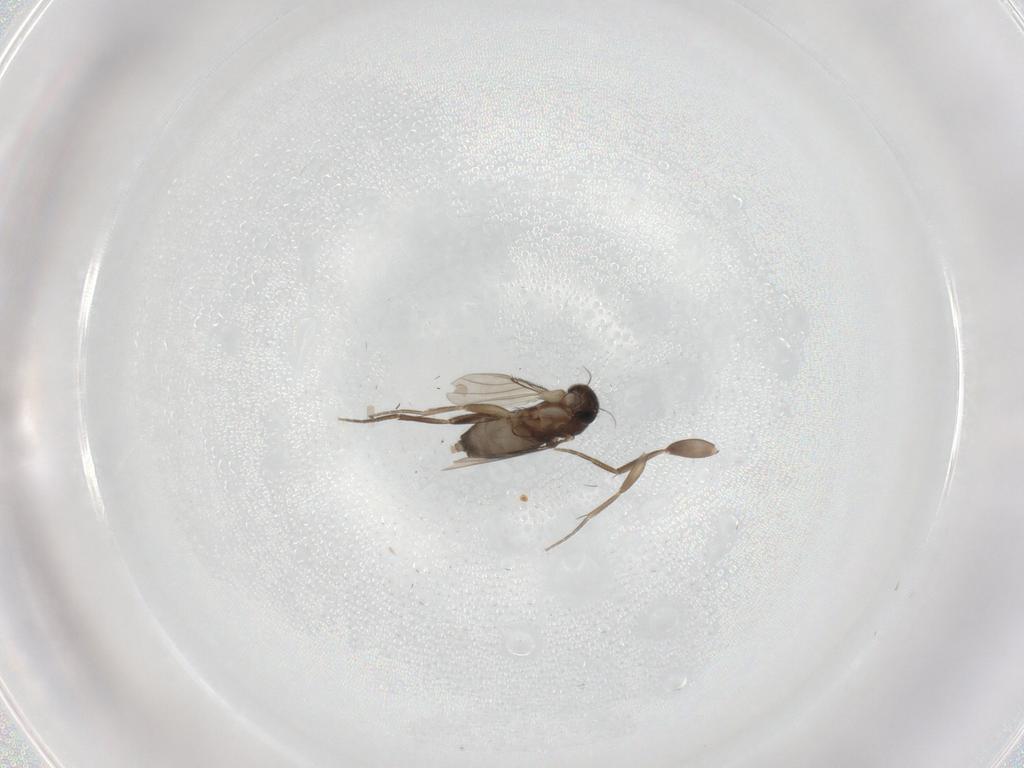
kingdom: Animalia
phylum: Arthropoda
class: Insecta
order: Diptera
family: Phoridae
